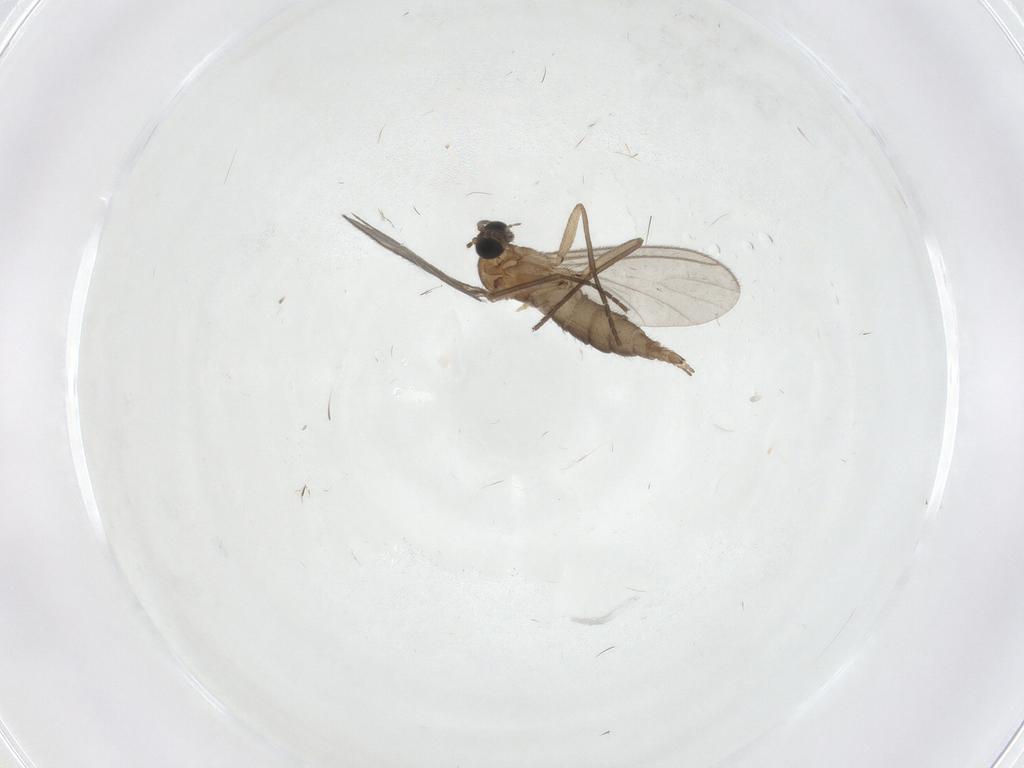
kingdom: Animalia
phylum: Arthropoda
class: Insecta
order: Diptera
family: Sciaridae
